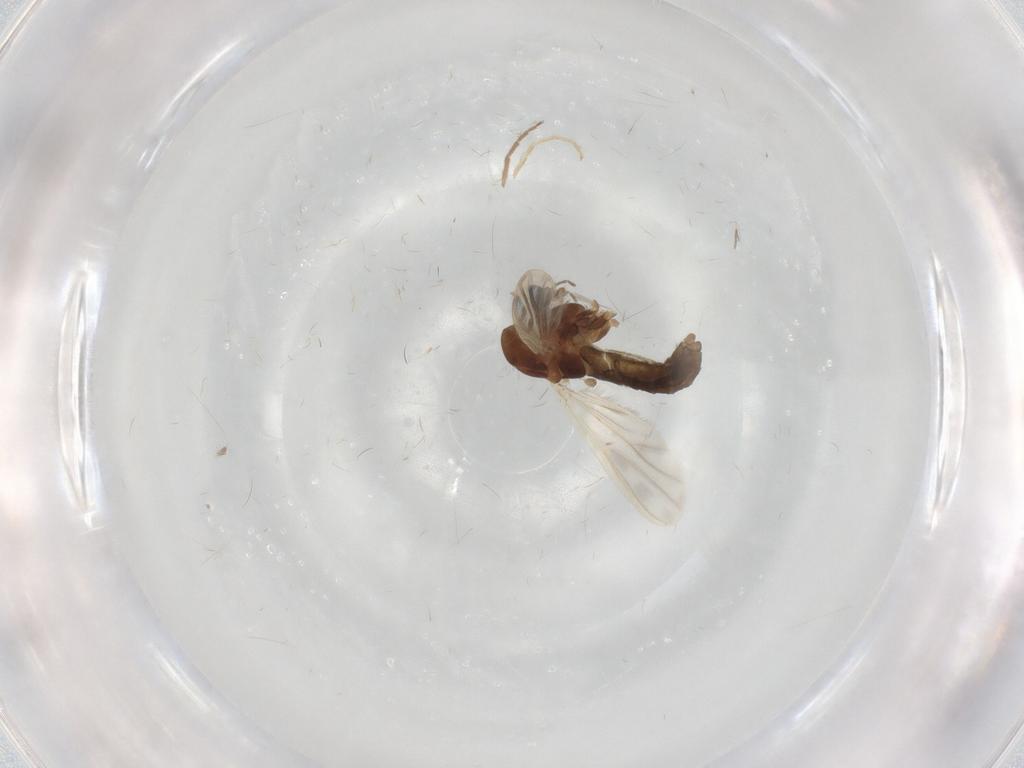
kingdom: Animalia
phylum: Arthropoda
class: Insecta
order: Diptera
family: Chironomidae
